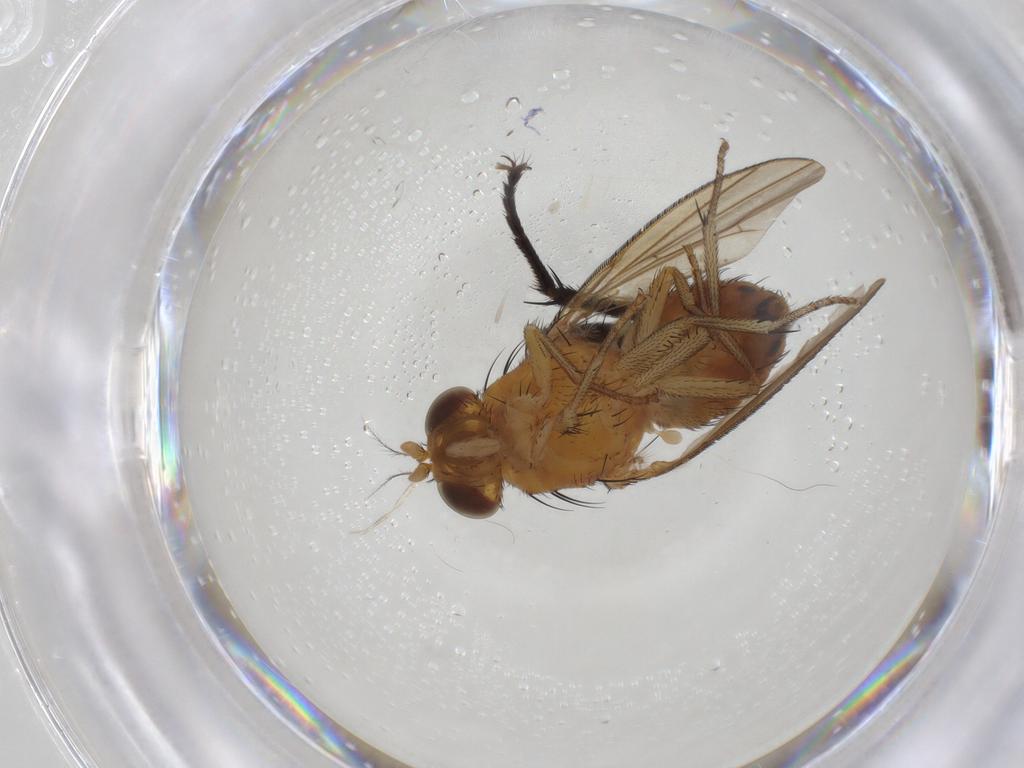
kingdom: Animalia
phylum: Arthropoda
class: Insecta
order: Diptera
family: Lauxaniidae
